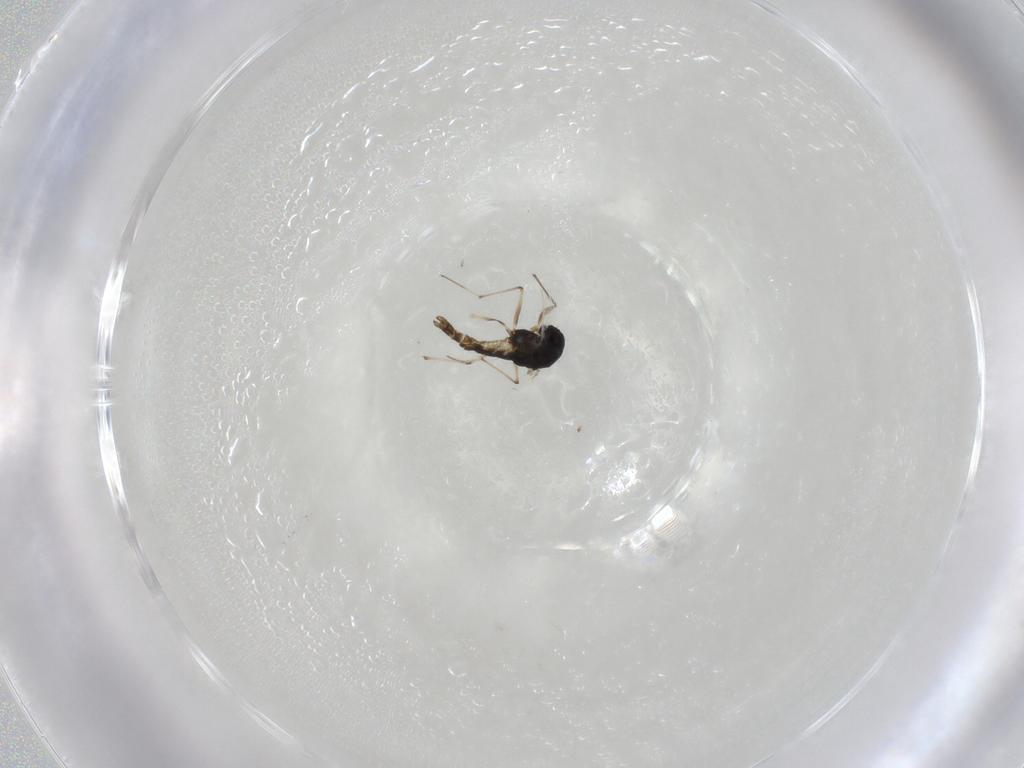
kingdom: Animalia
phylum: Arthropoda
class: Insecta
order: Diptera
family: Chironomidae
